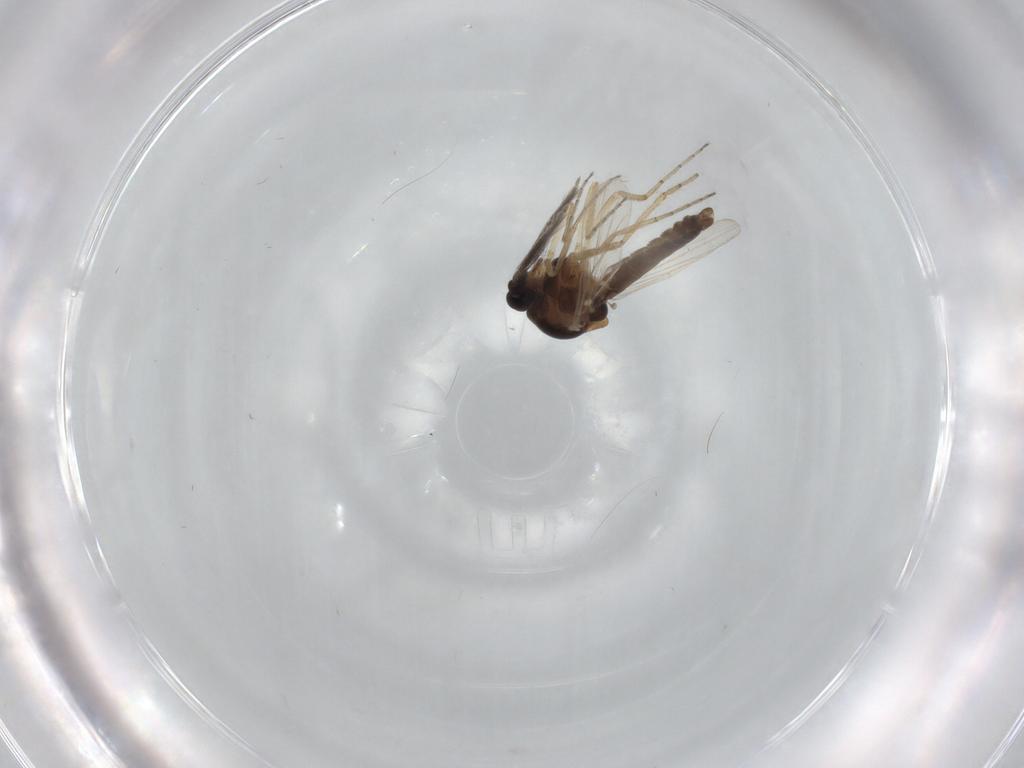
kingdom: Animalia
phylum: Arthropoda
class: Insecta
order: Diptera
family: Ceratopogonidae
